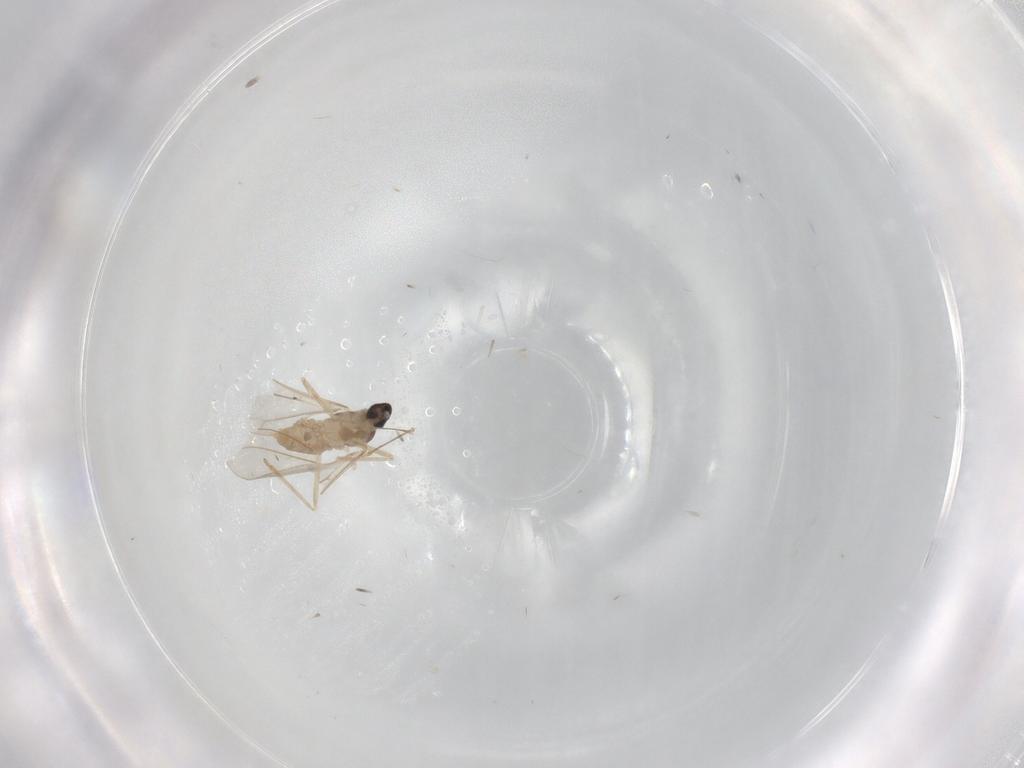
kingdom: Animalia
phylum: Arthropoda
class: Insecta
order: Diptera
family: Cecidomyiidae
